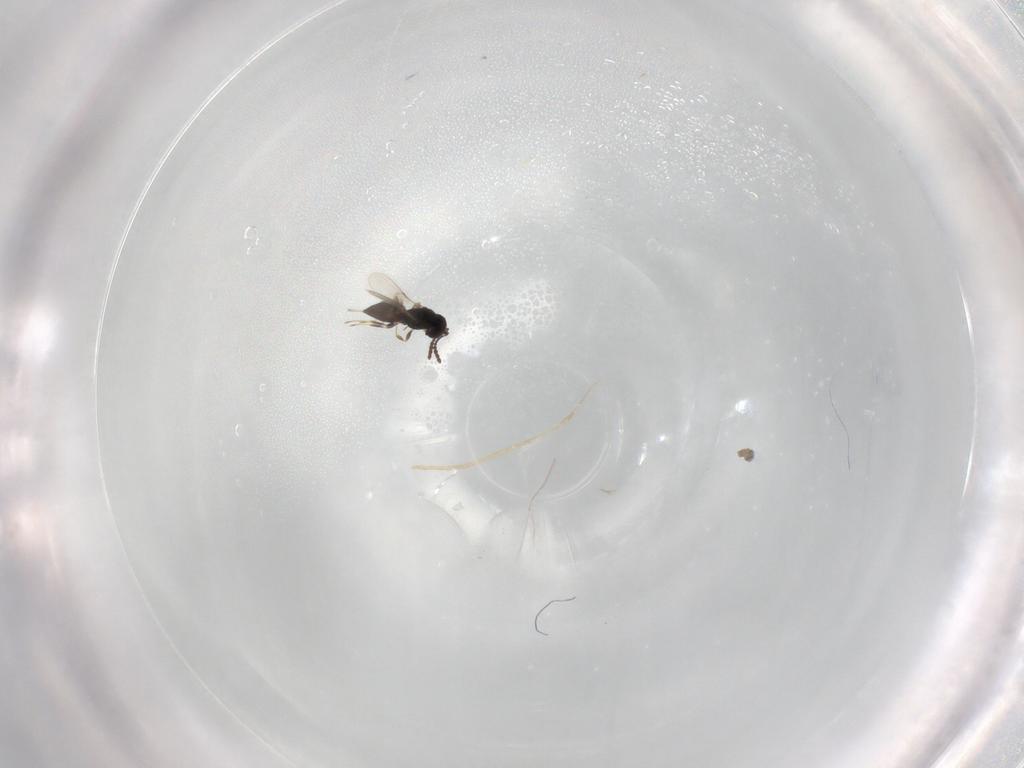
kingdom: Animalia
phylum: Arthropoda
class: Insecta
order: Hymenoptera
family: Scelionidae
